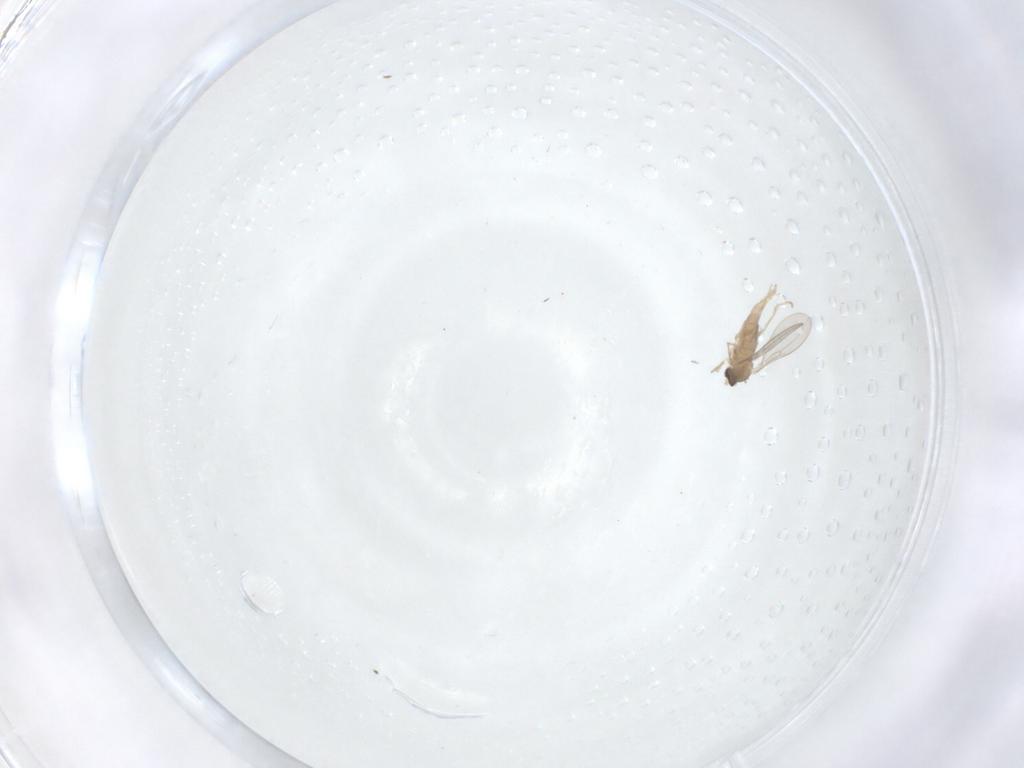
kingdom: Animalia
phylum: Arthropoda
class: Insecta
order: Diptera
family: Cecidomyiidae
